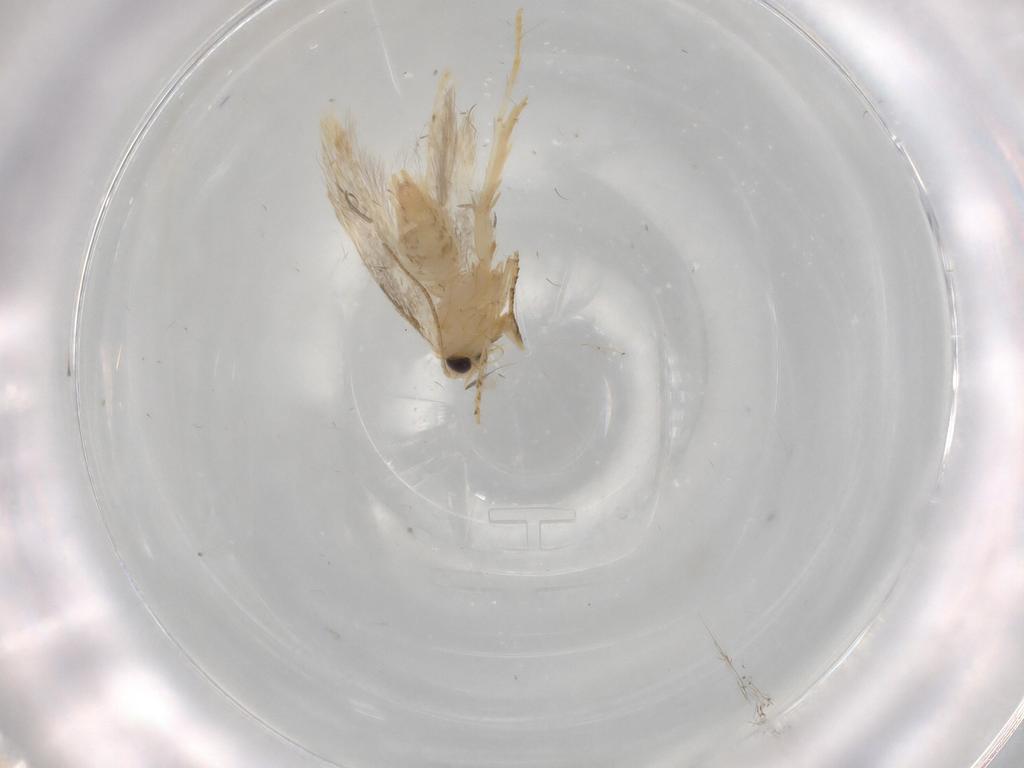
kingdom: Animalia
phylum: Arthropoda
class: Insecta
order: Lepidoptera
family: Tischeriidae
